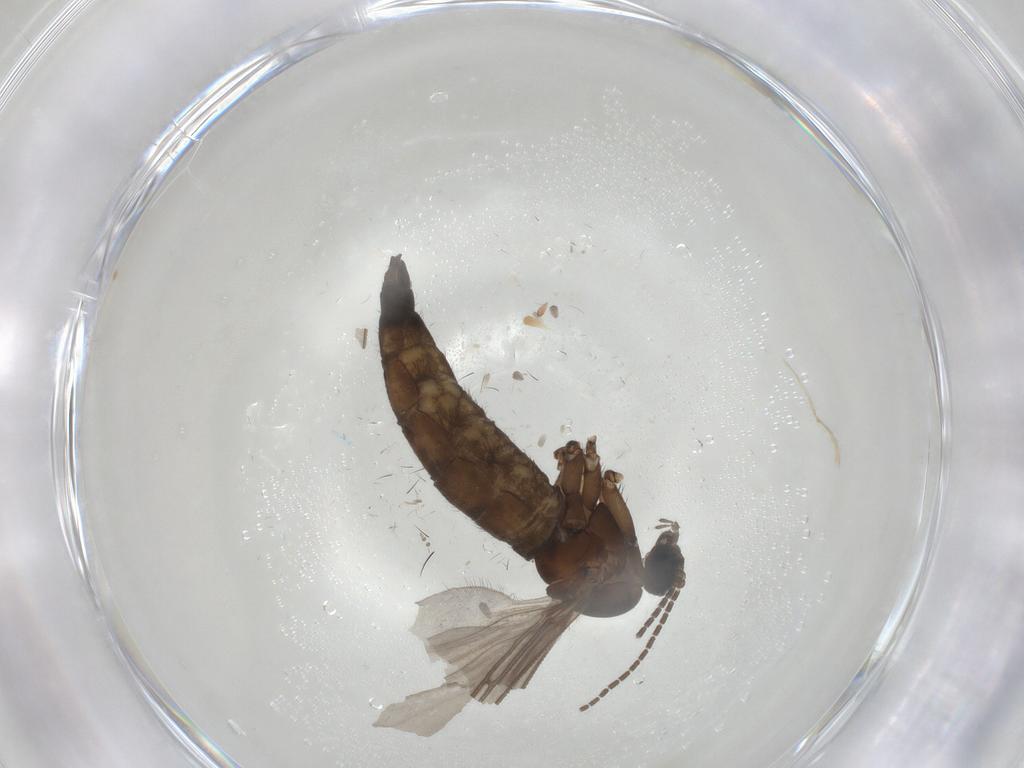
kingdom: Animalia
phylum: Arthropoda
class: Insecta
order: Diptera
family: Sciaridae
